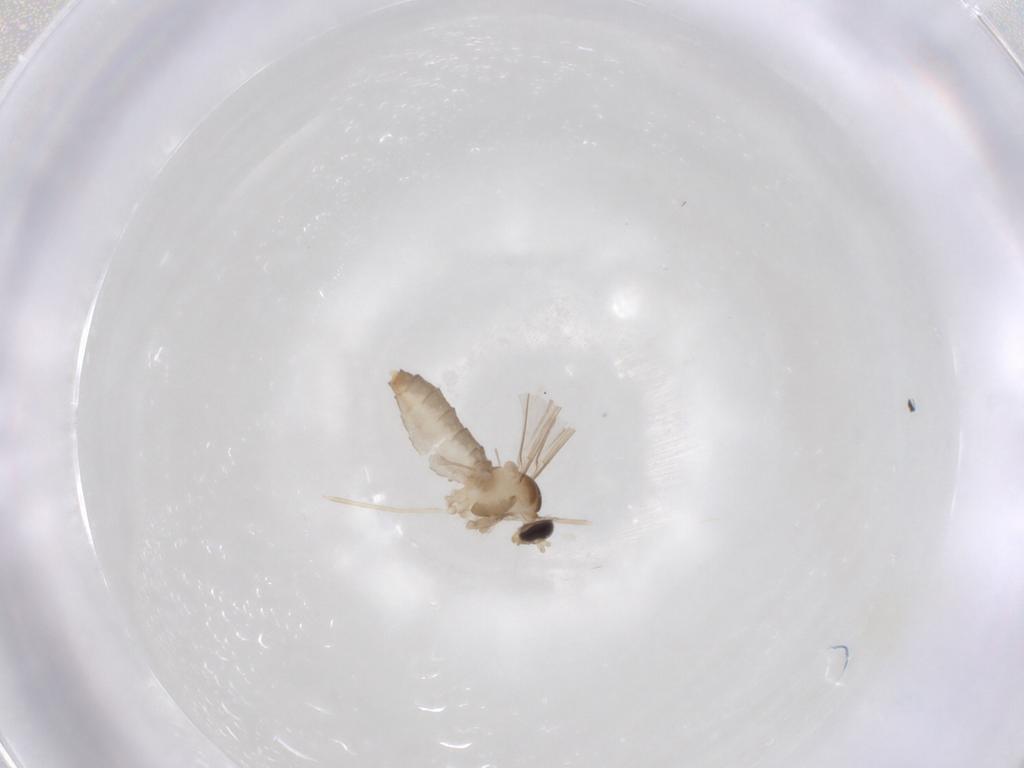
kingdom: Animalia
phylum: Arthropoda
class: Insecta
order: Diptera
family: Cecidomyiidae
